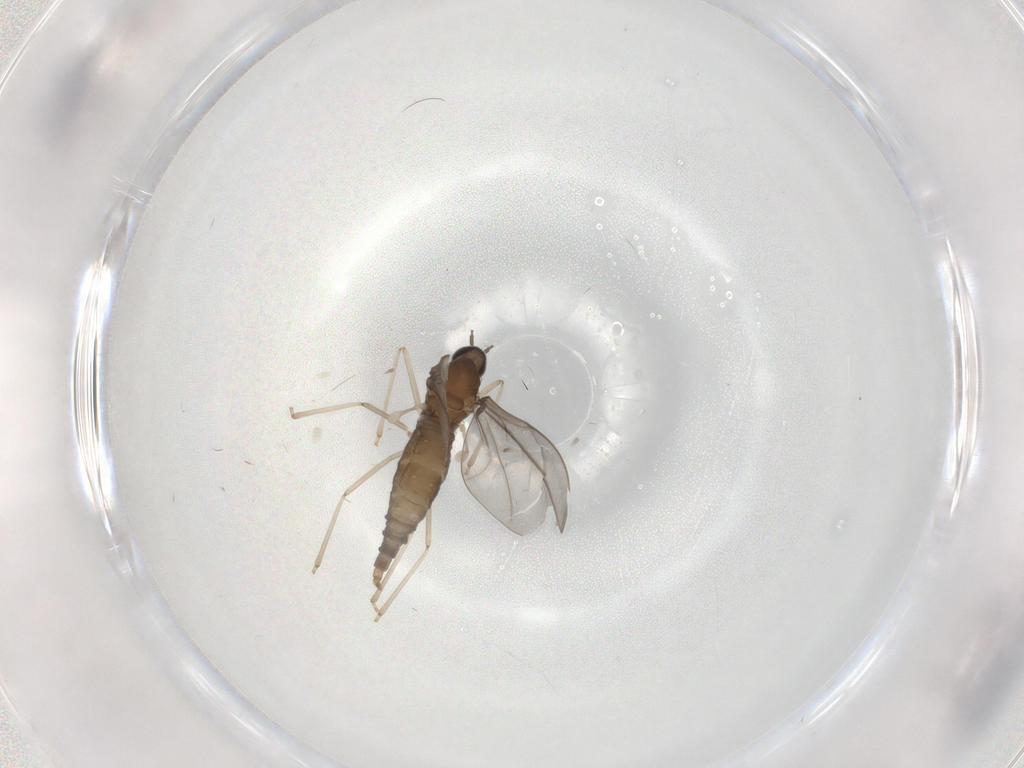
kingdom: Animalia
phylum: Arthropoda
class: Insecta
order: Diptera
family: Cecidomyiidae
